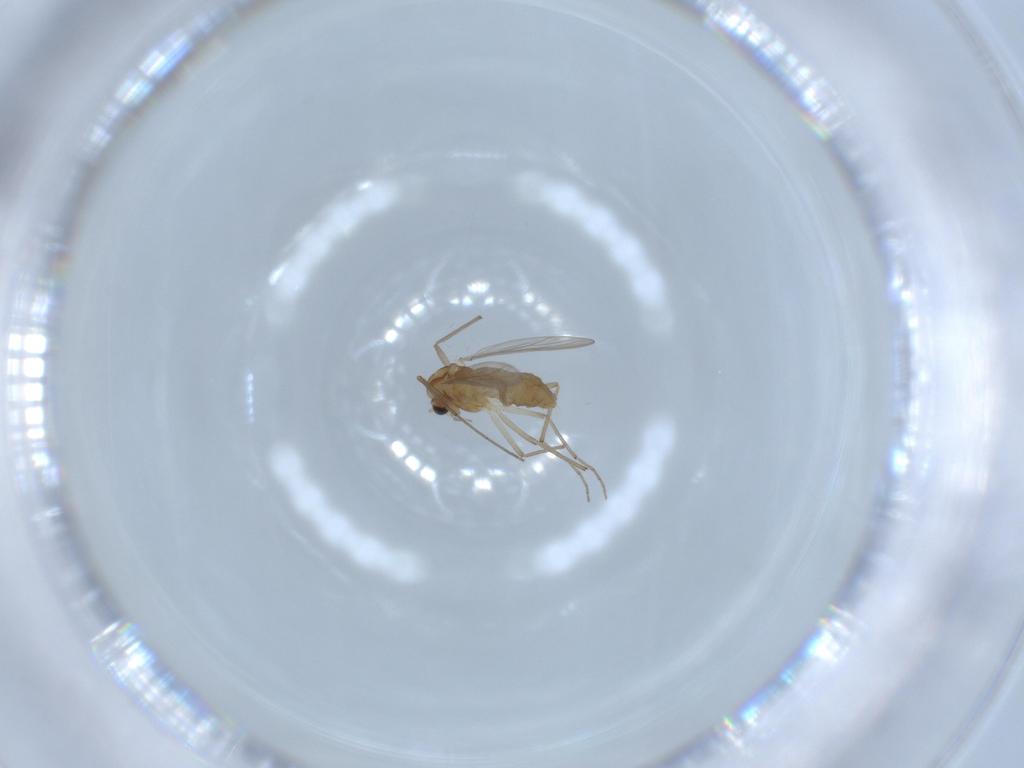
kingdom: Animalia
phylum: Arthropoda
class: Insecta
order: Diptera
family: Chironomidae
